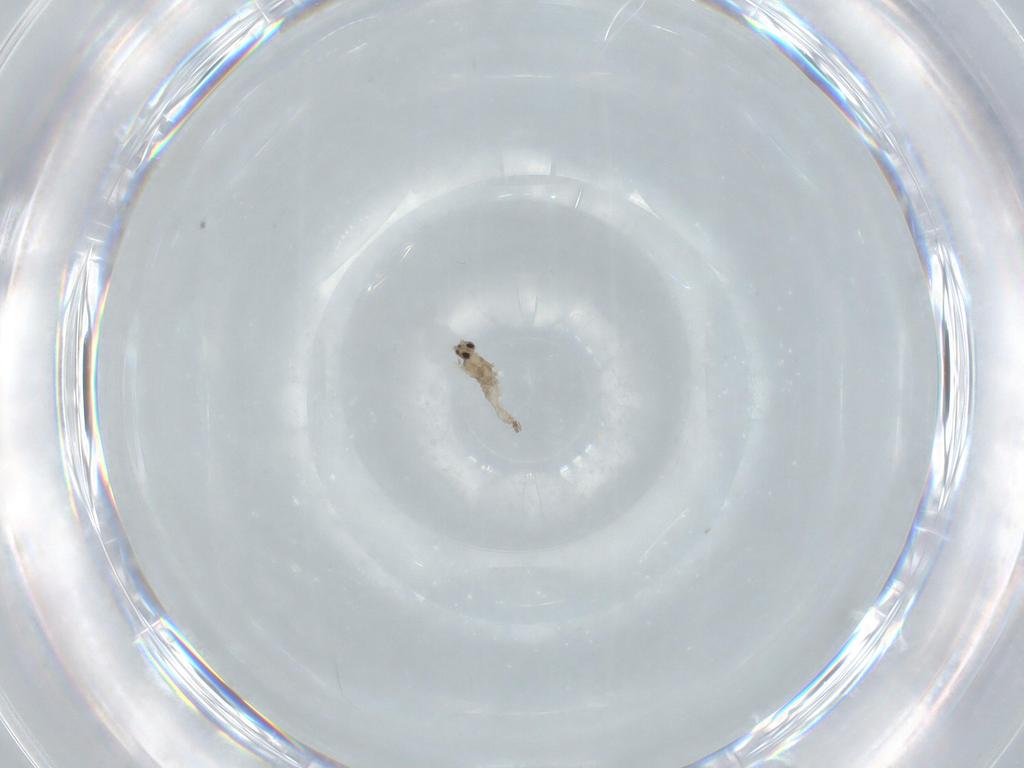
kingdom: Animalia
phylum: Arthropoda
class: Insecta
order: Diptera
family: Cecidomyiidae
